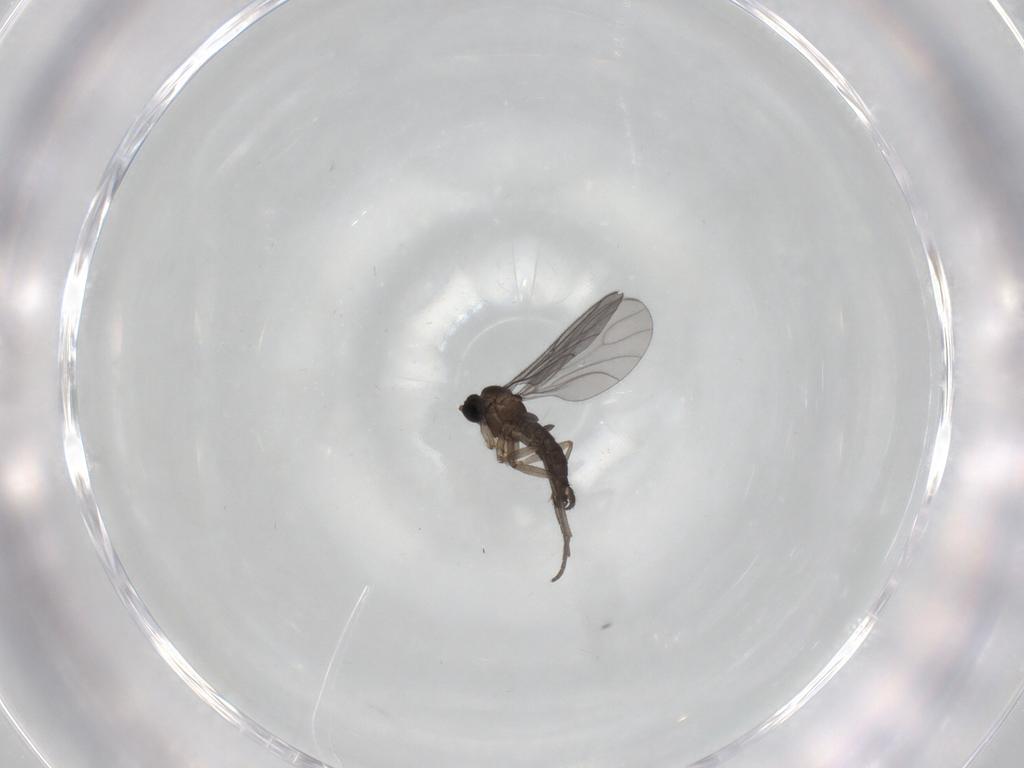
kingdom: Animalia
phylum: Arthropoda
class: Insecta
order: Diptera
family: Sciaridae
